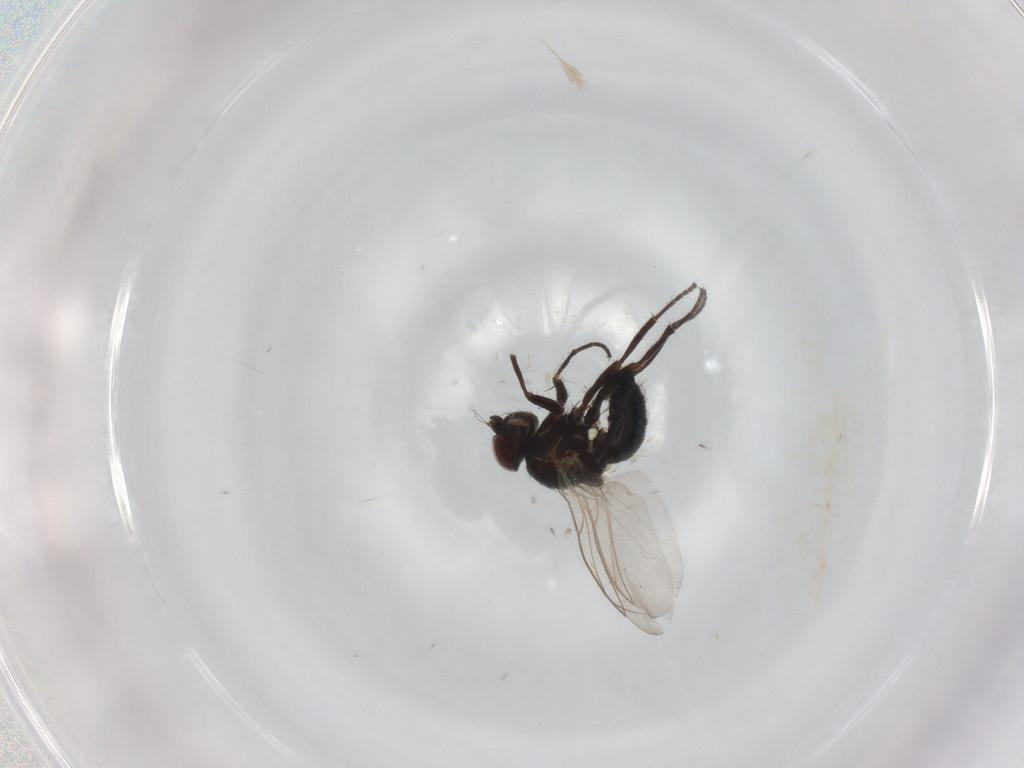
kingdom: Animalia
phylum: Arthropoda
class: Insecta
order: Diptera
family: Agromyzidae
